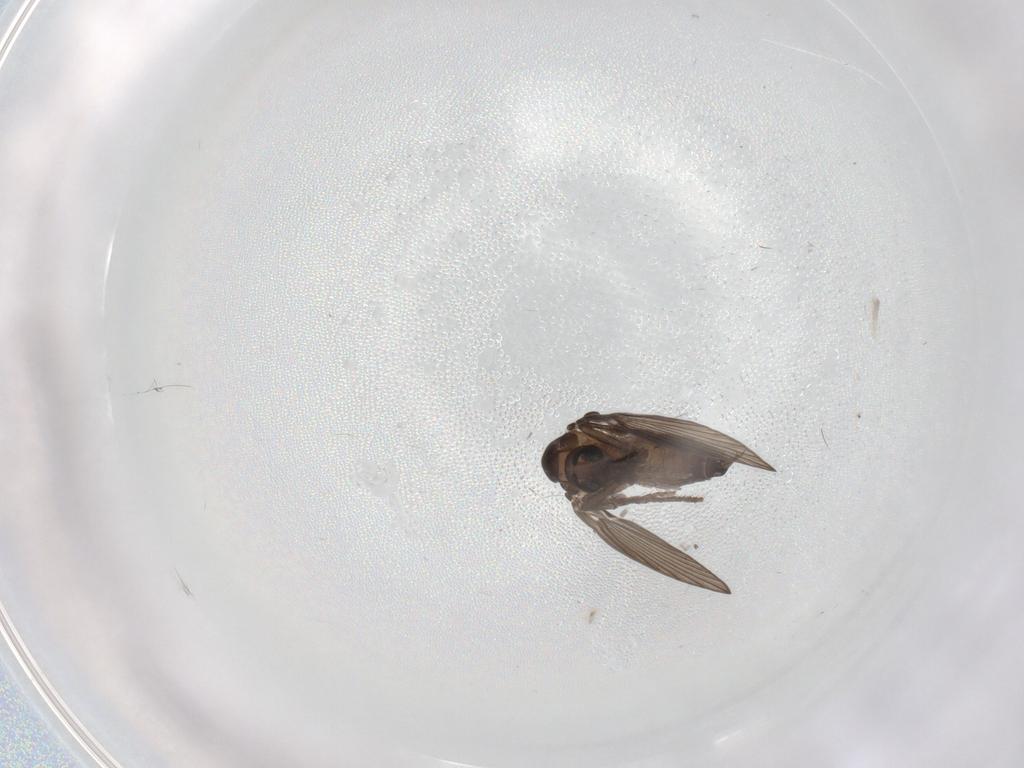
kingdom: Animalia
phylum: Arthropoda
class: Insecta
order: Diptera
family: Psychodidae
